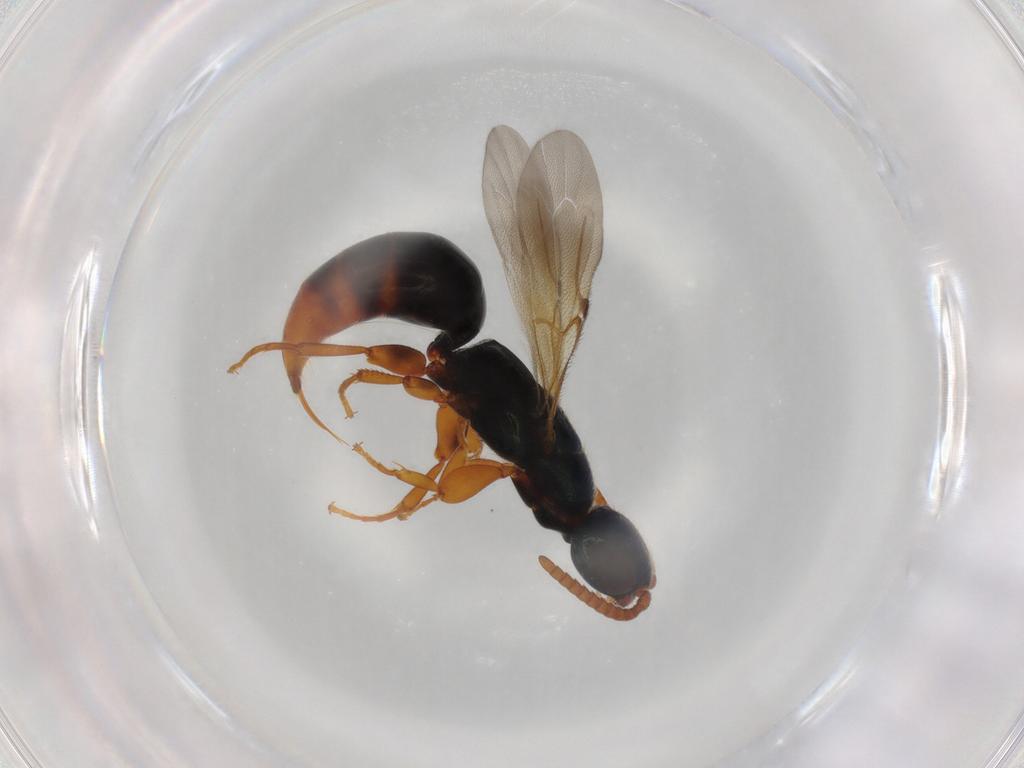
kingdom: Animalia
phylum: Arthropoda
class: Insecta
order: Hymenoptera
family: Bethylidae
